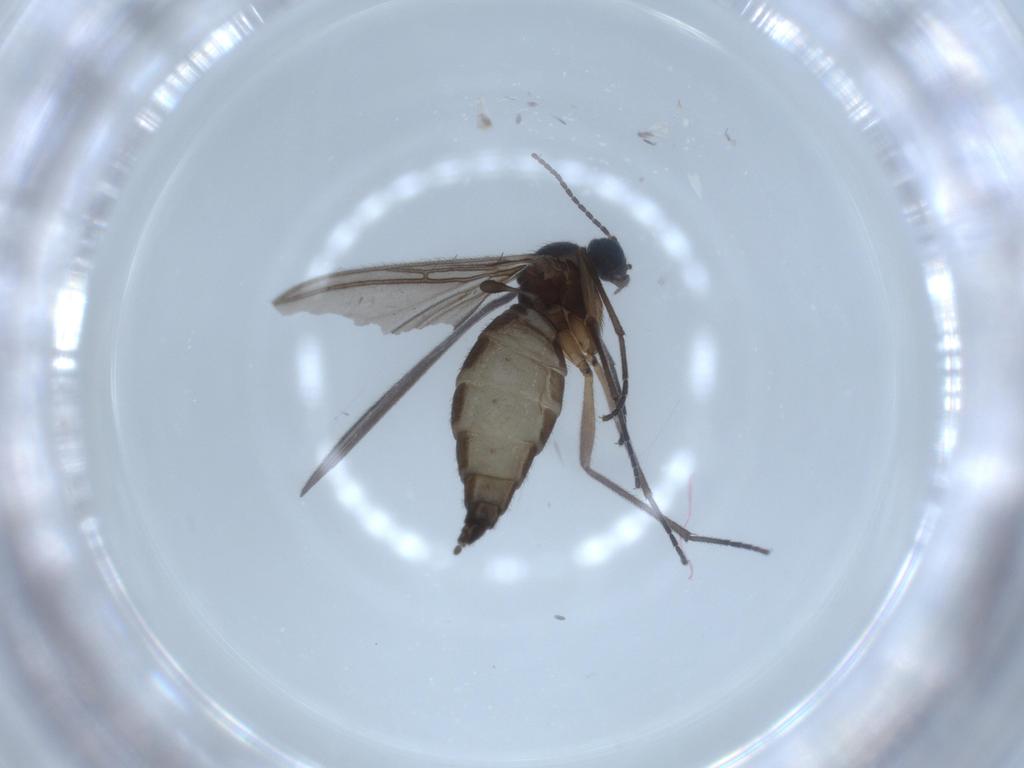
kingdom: Animalia
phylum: Arthropoda
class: Insecta
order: Diptera
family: Sciaridae
